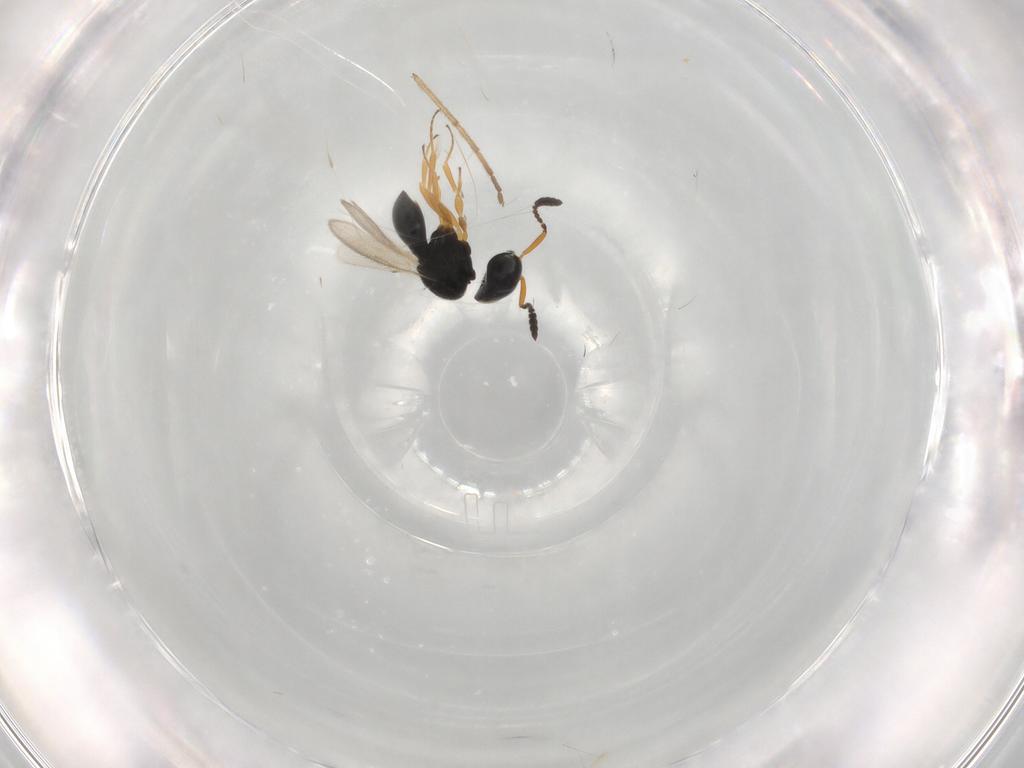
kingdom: Animalia
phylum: Arthropoda
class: Insecta
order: Hymenoptera
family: Scelionidae
